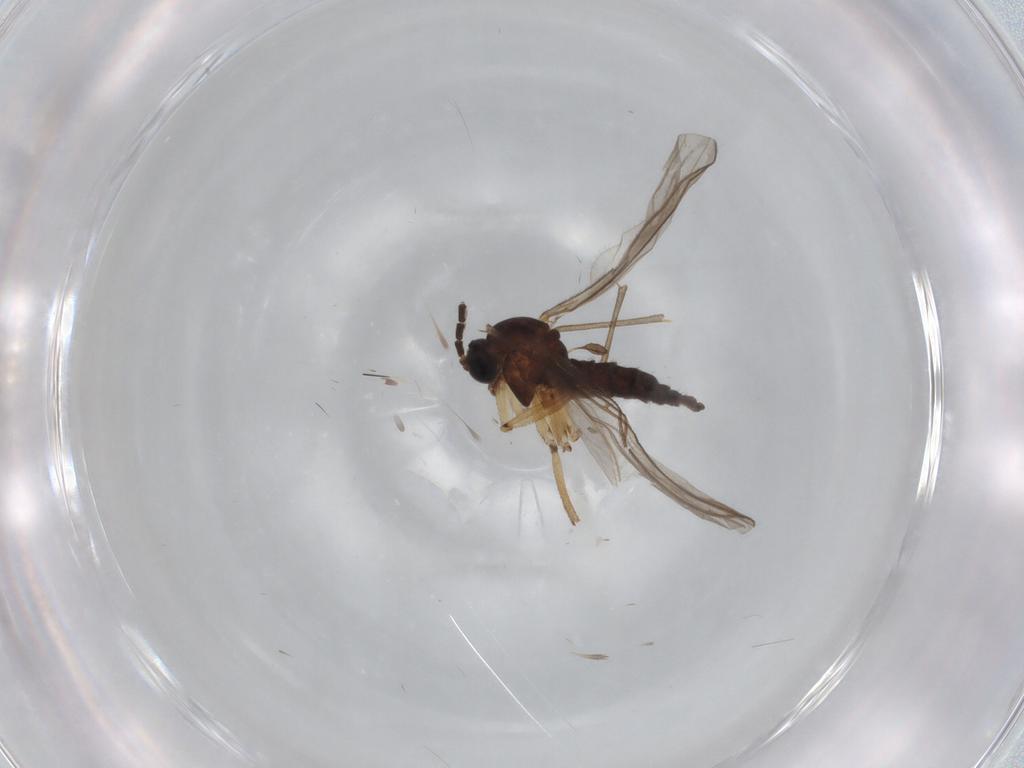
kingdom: Animalia
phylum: Arthropoda
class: Insecta
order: Diptera
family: Sciaridae
